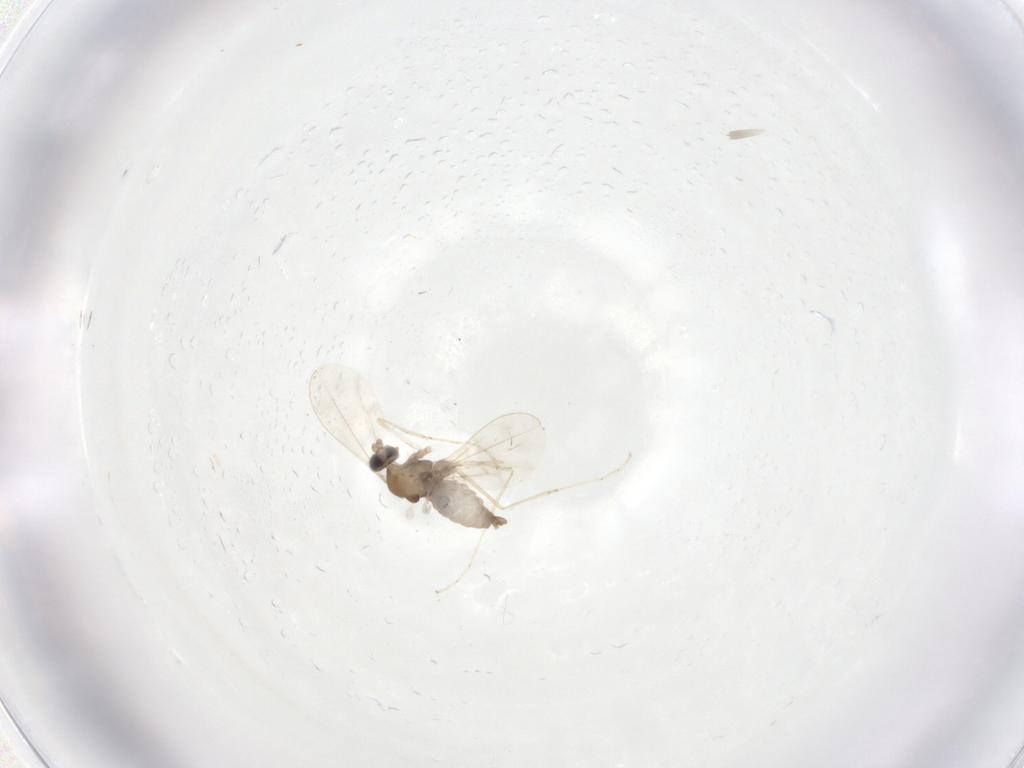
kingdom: Animalia
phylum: Arthropoda
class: Insecta
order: Diptera
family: Cecidomyiidae
